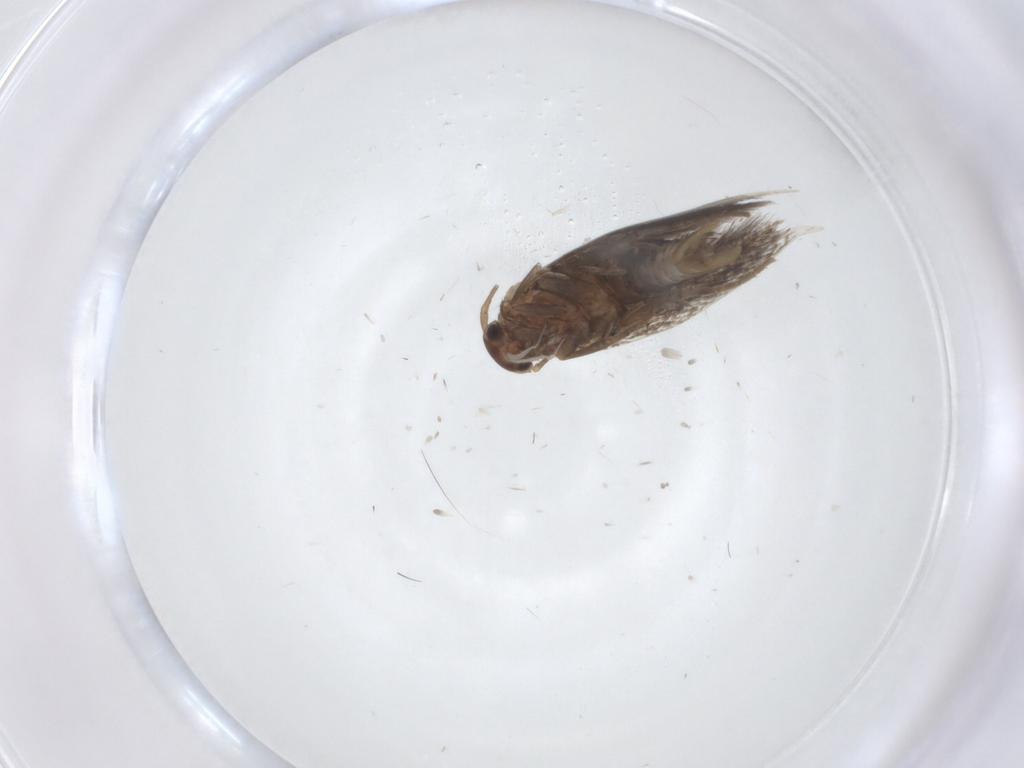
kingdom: Animalia
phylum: Arthropoda
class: Insecta
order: Lepidoptera
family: Elachistidae
